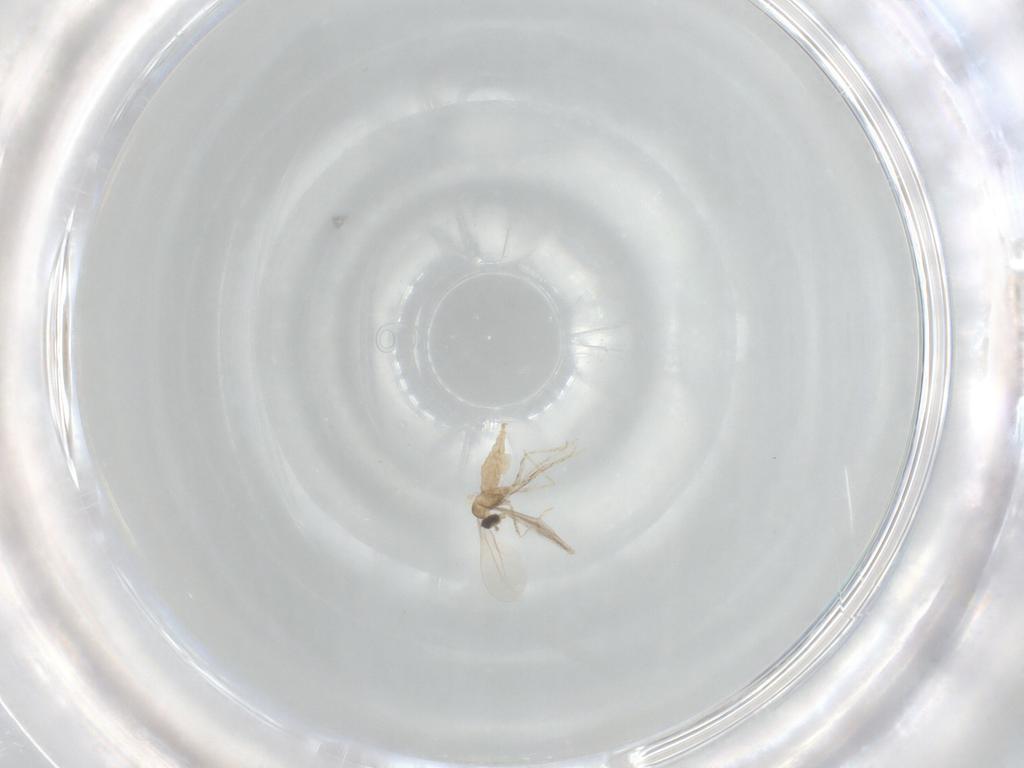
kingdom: Animalia
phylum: Arthropoda
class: Insecta
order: Diptera
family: Cecidomyiidae
